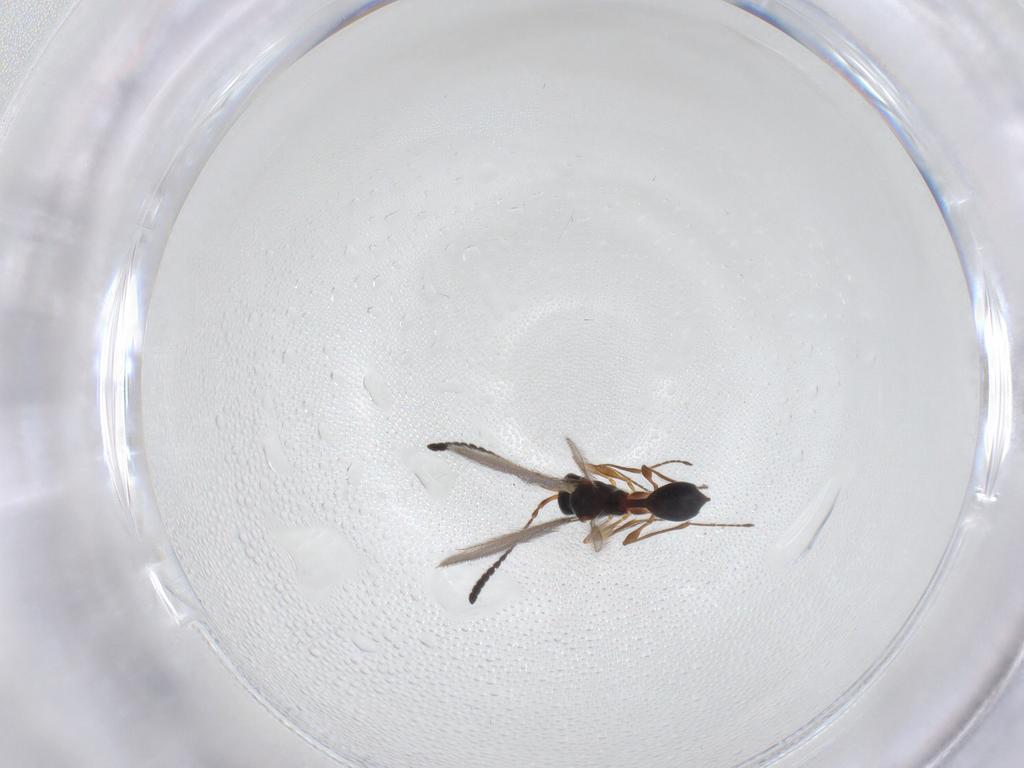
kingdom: Animalia
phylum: Arthropoda
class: Insecta
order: Hymenoptera
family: Diapriidae
